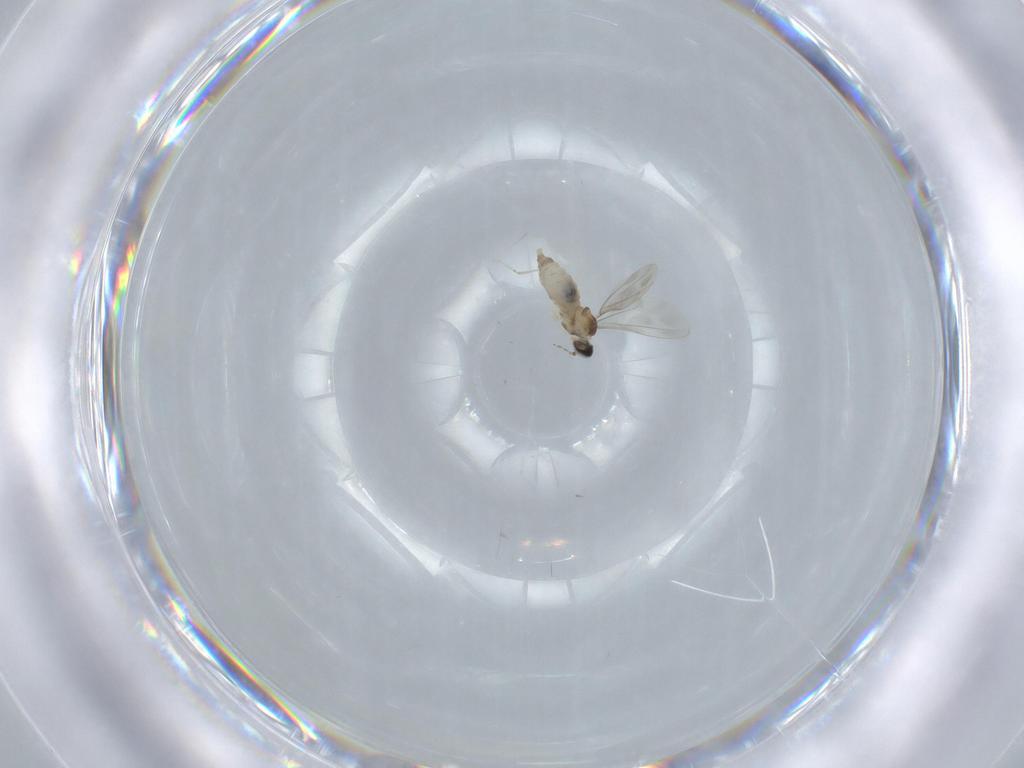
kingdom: Animalia
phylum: Arthropoda
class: Insecta
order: Diptera
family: Cecidomyiidae
